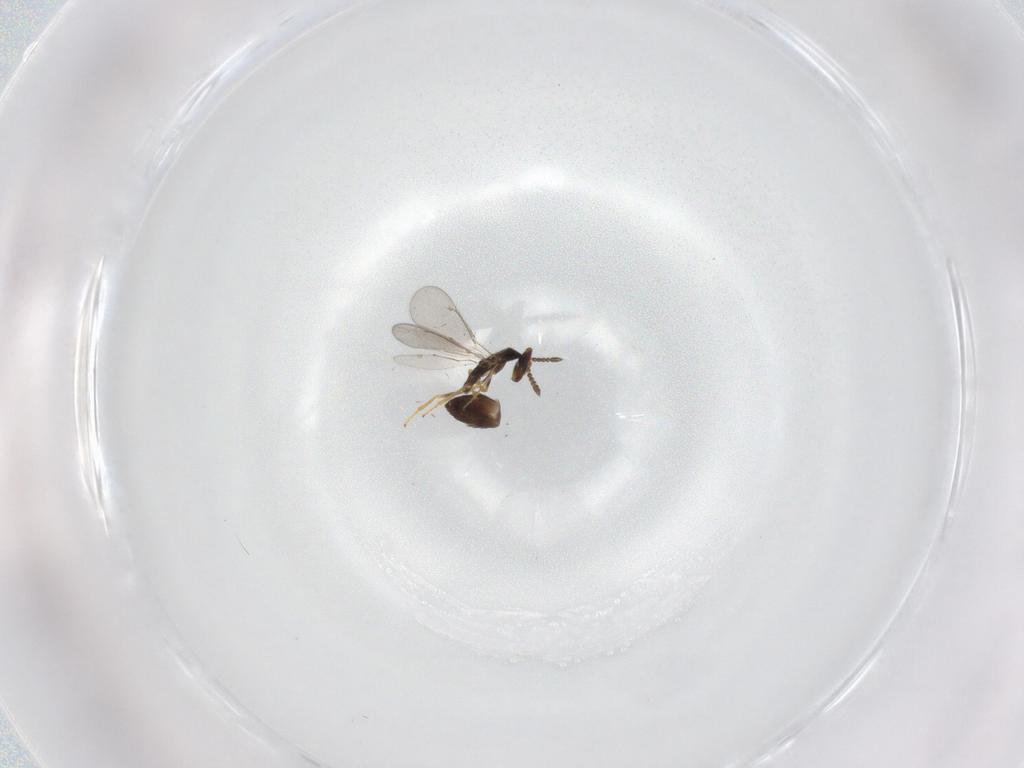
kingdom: Animalia
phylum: Arthropoda
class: Insecta
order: Hymenoptera
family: Eulophidae
